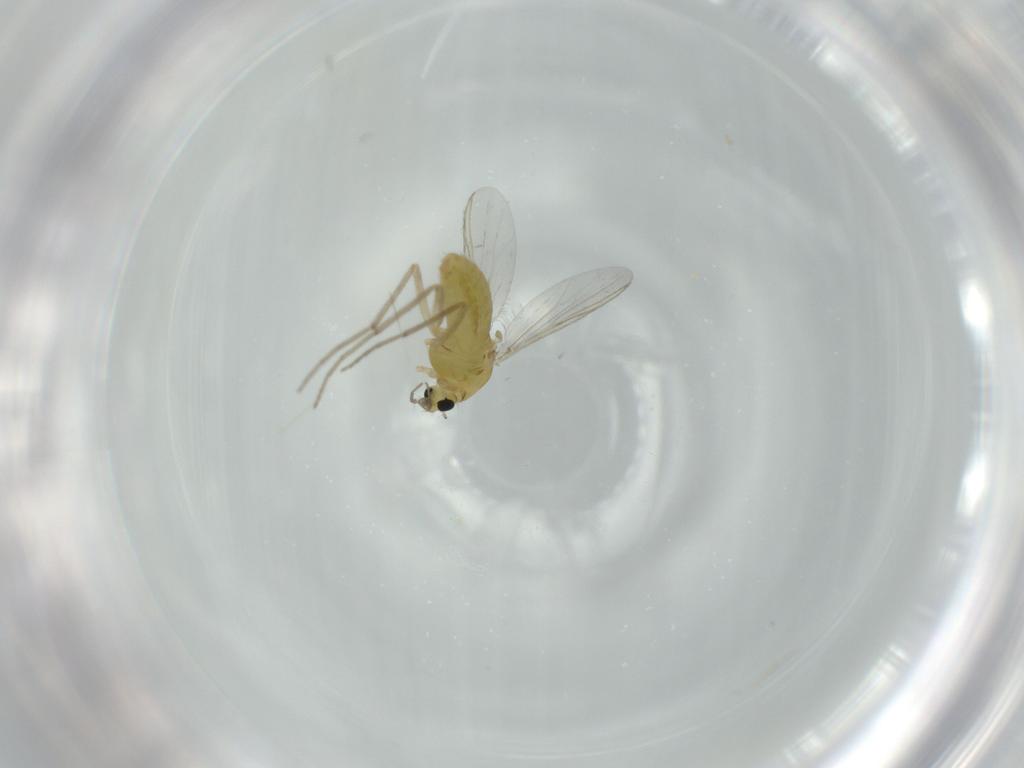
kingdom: Animalia
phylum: Arthropoda
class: Insecta
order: Diptera
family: Chironomidae
